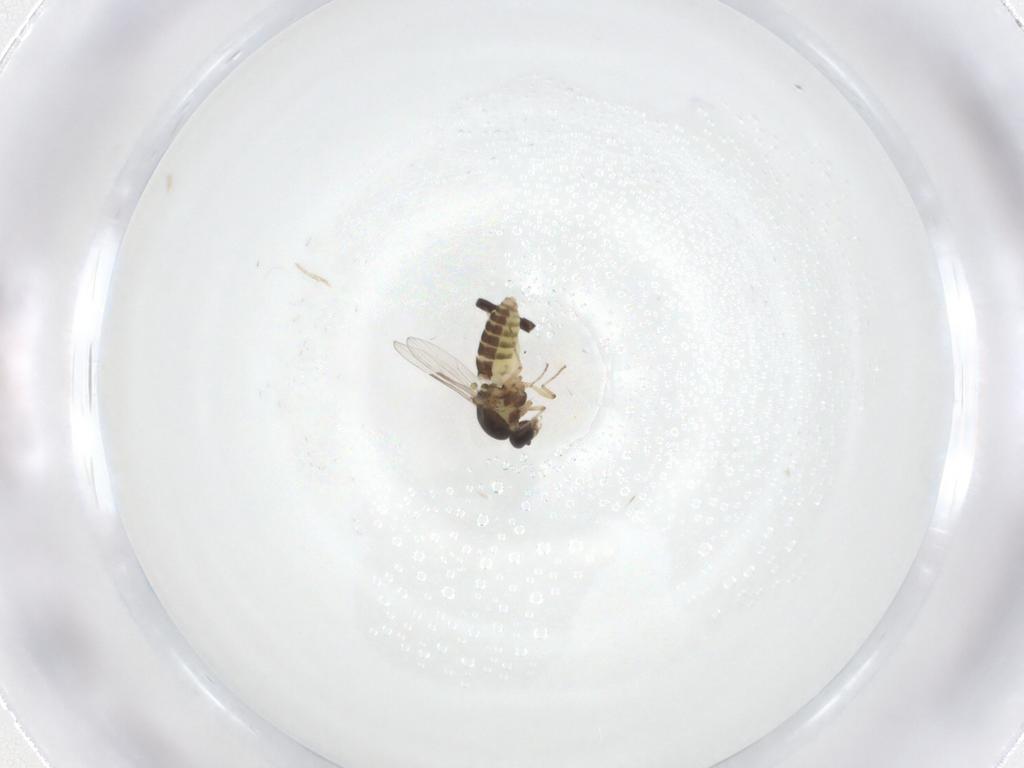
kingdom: Animalia
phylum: Arthropoda
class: Insecta
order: Diptera
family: Ceratopogonidae
